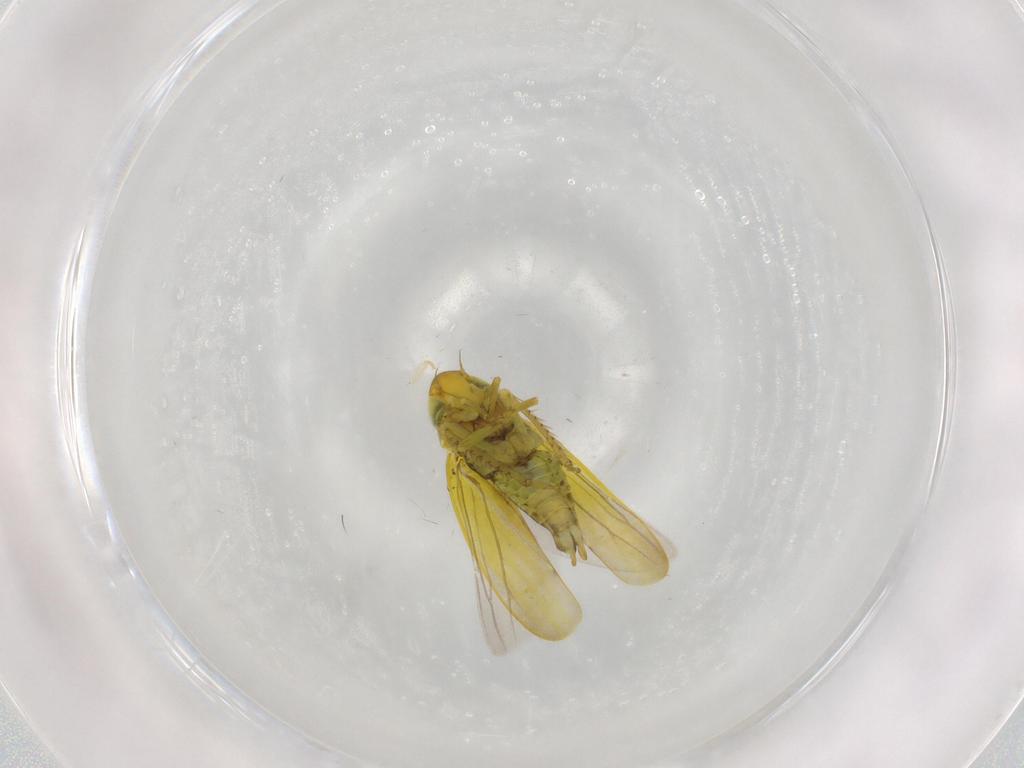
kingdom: Animalia
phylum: Arthropoda
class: Insecta
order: Hemiptera
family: Cicadellidae
